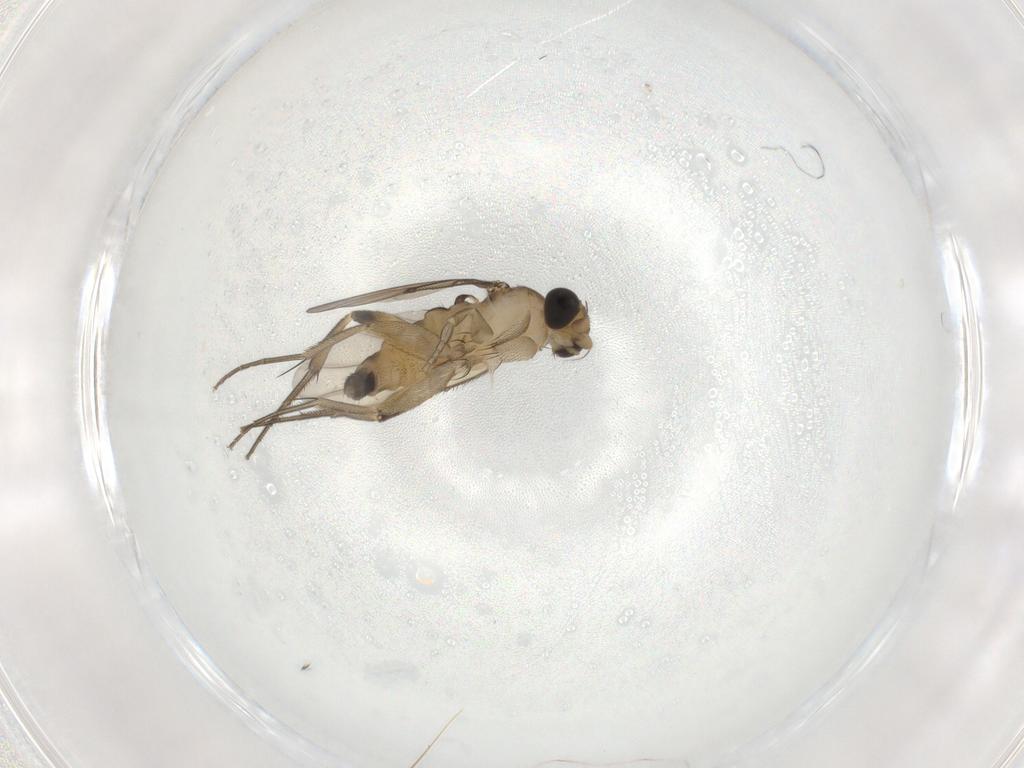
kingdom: Animalia
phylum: Arthropoda
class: Insecta
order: Diptera
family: Phoridae
